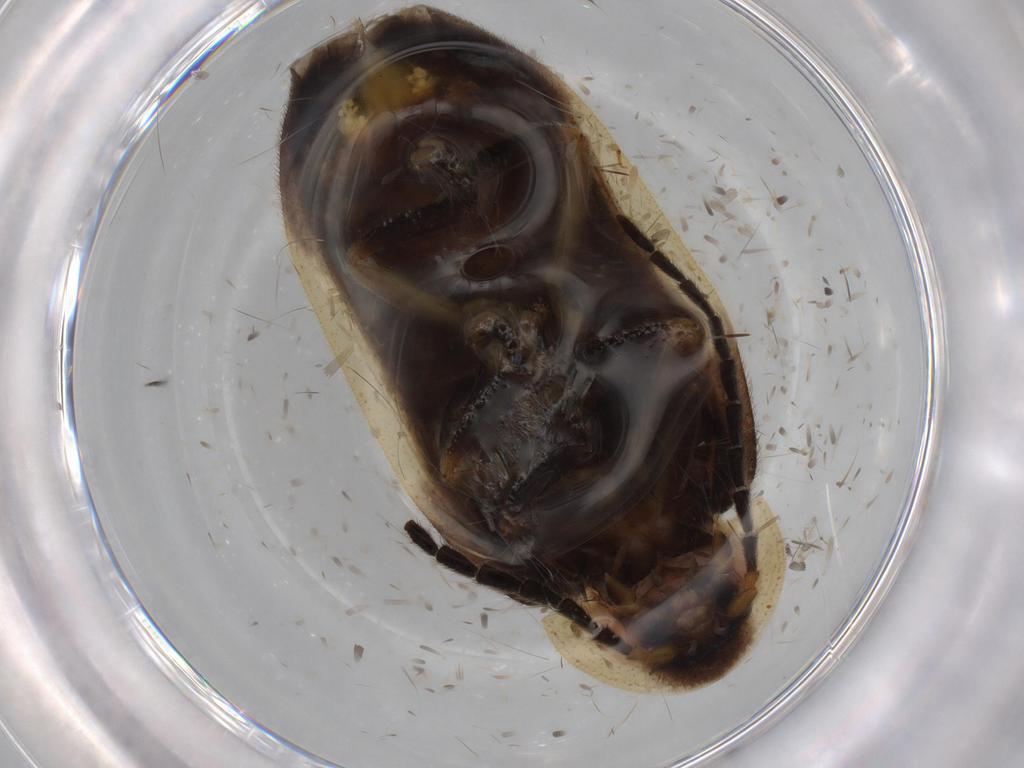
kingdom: Animalia
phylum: Arthropoda
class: Insecta
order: Coleoptera
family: Lampyridae
